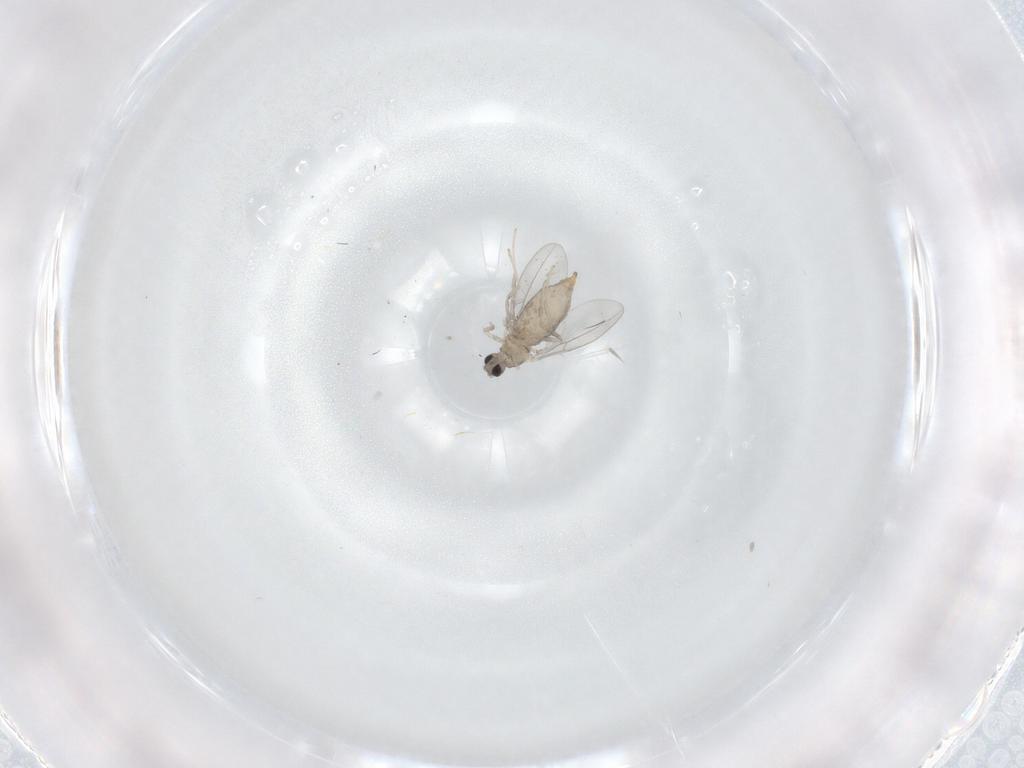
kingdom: Animalia
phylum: Arthropoda
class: Insecta
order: Diptera
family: Cecidomyiidae
